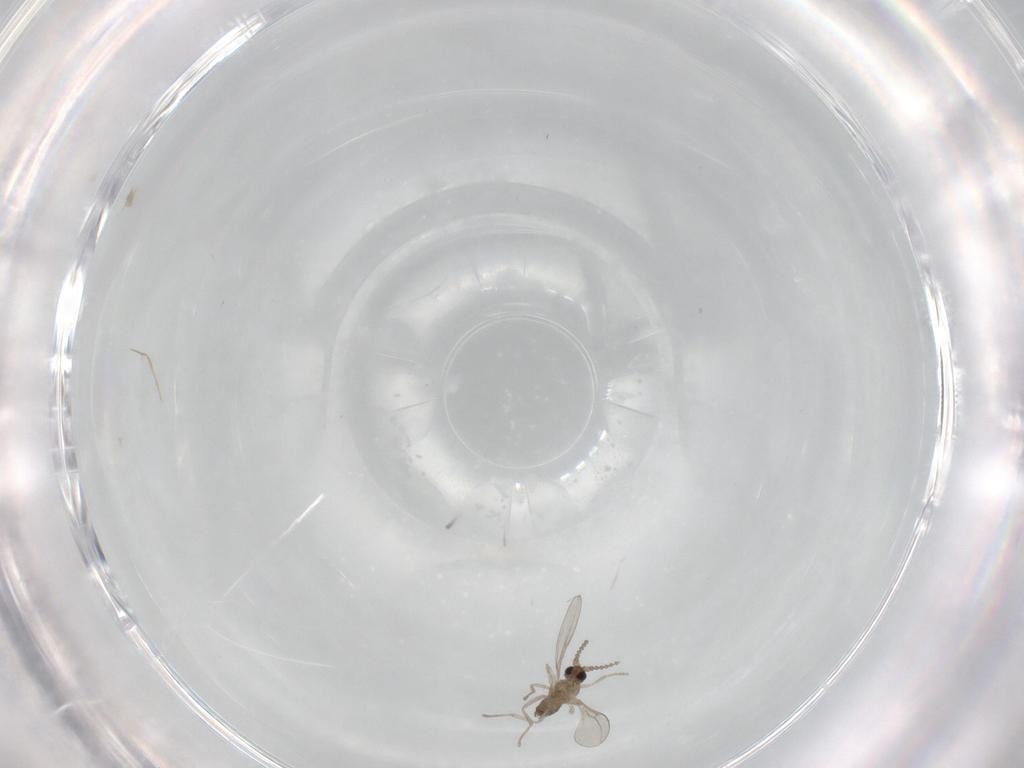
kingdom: Animalia
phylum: Arthropoda
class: Insecta
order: Diptera
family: Cecidomyiidae
